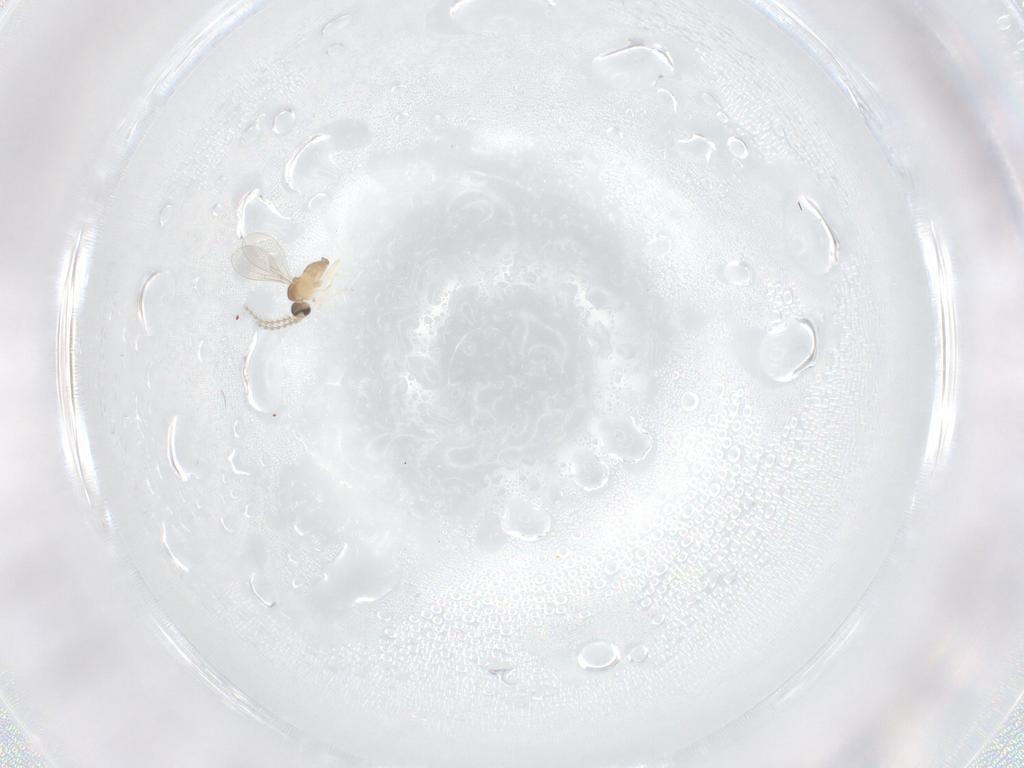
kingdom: Animalia
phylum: Arthropoda
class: Insecta
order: Diptera
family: Cecidomyiidae
